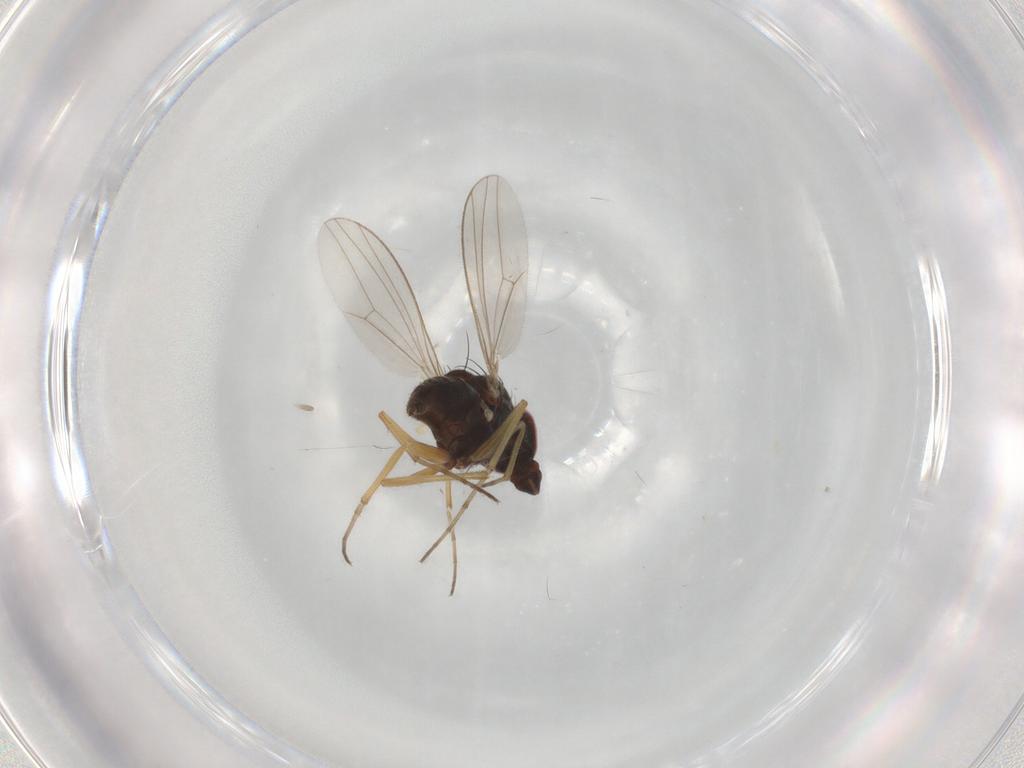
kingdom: Animalia
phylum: Arthropoda
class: Insecta
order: Diptera
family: Dolichopodidae
